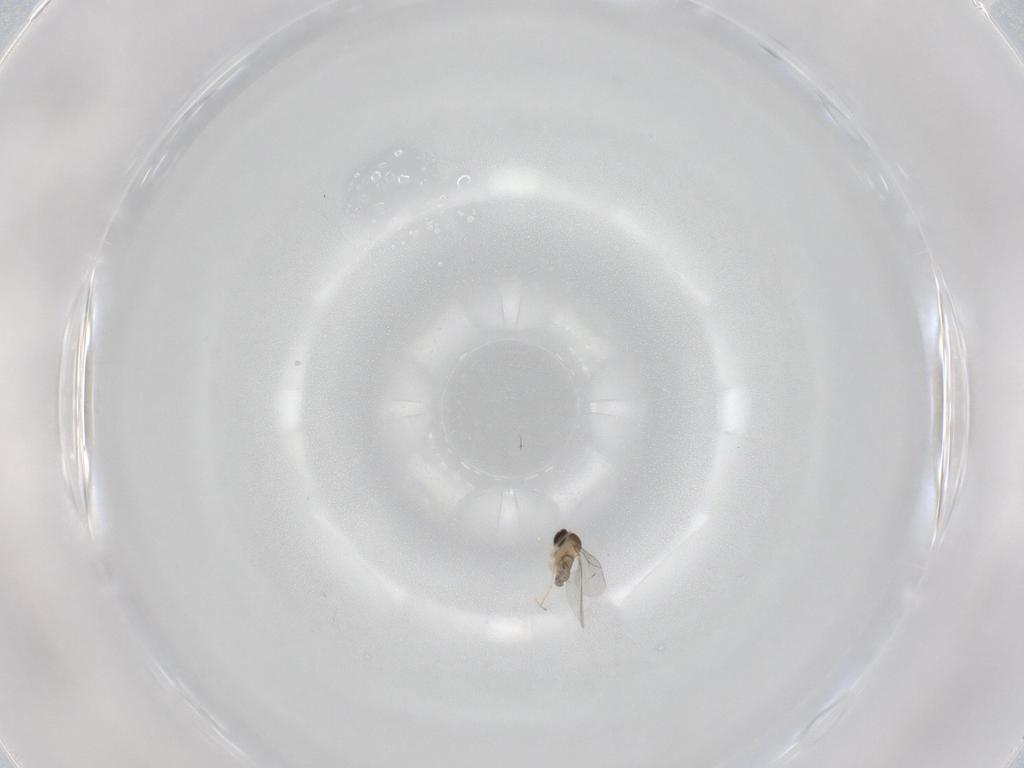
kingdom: Animalia
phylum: Arthropoda
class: Insecta
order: Diptera
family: Cecidomyiidae
